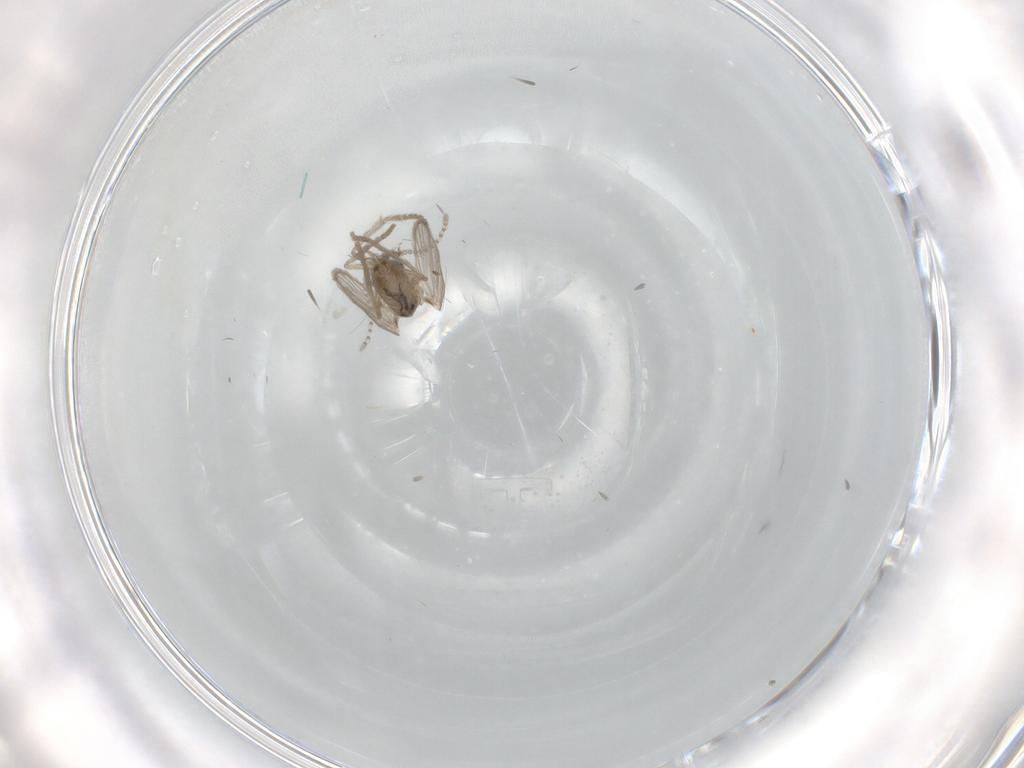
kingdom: Animalia
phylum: Arthropoda
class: Insecta
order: Diptera
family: Psychodidae
